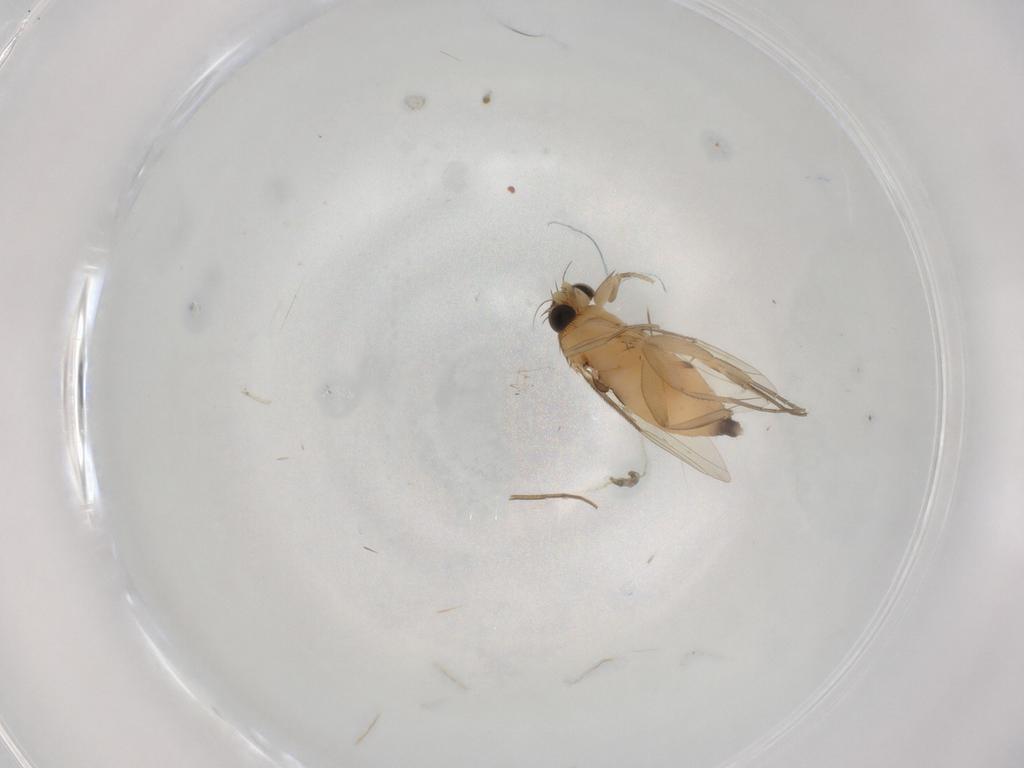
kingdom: Animalia
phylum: Arthropoda
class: Insecta
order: Diptera
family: Phoridae
